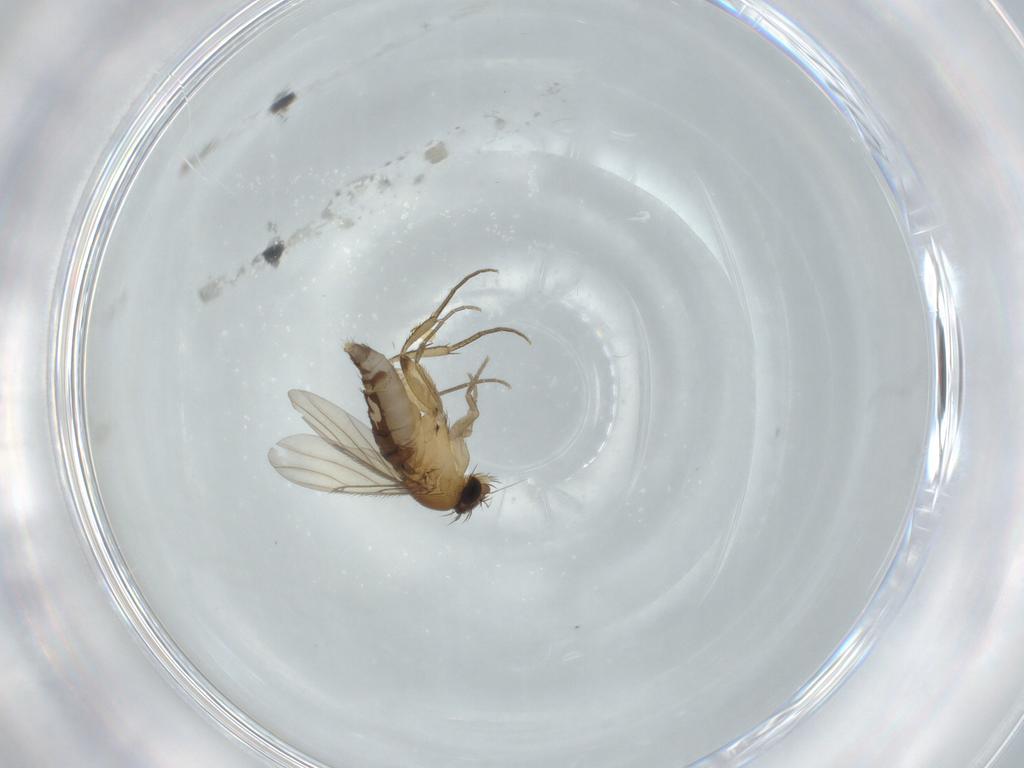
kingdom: Animalia
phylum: Arthropoda
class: Insecta
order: Diptera
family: Phoridae
